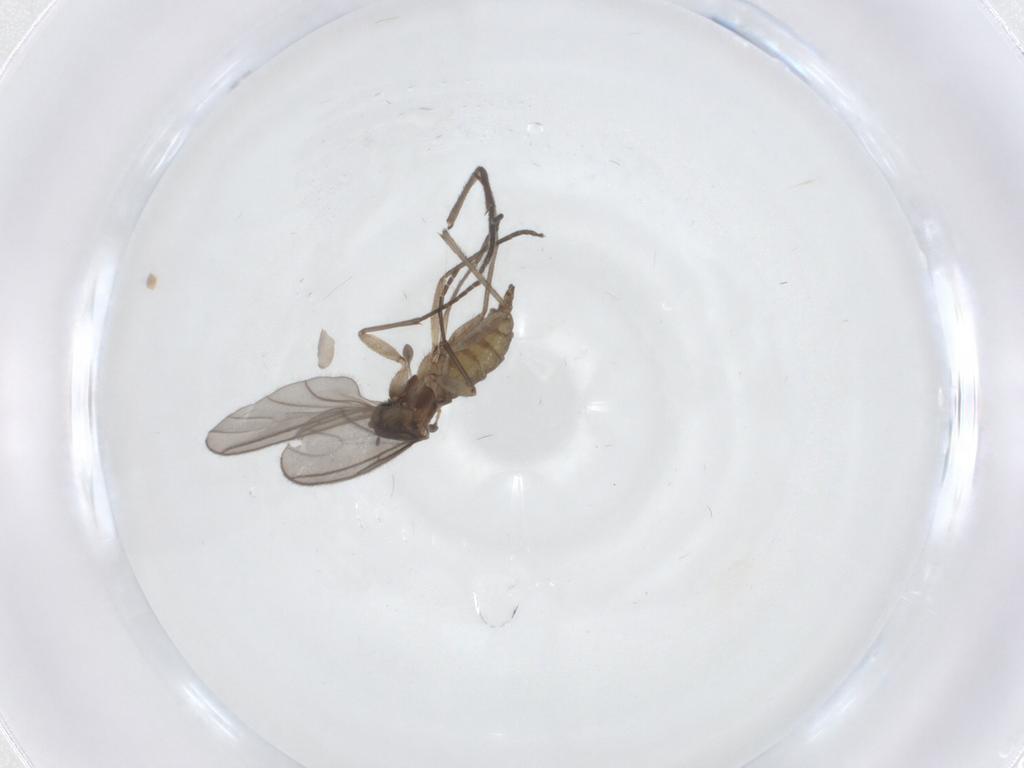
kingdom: Animalia
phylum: Arthropoda
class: Insecta
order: Diptera
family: Sciaridae
